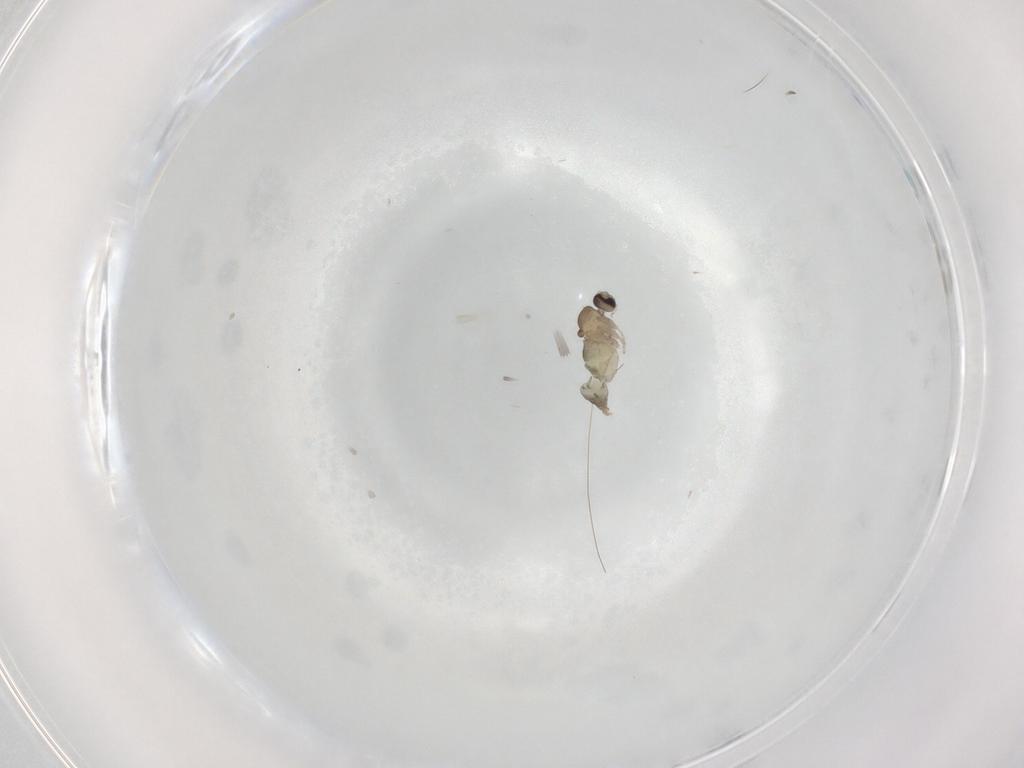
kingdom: Animalia
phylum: Arthropoda
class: Insecta
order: Diptera
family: Cecidomyiidae
